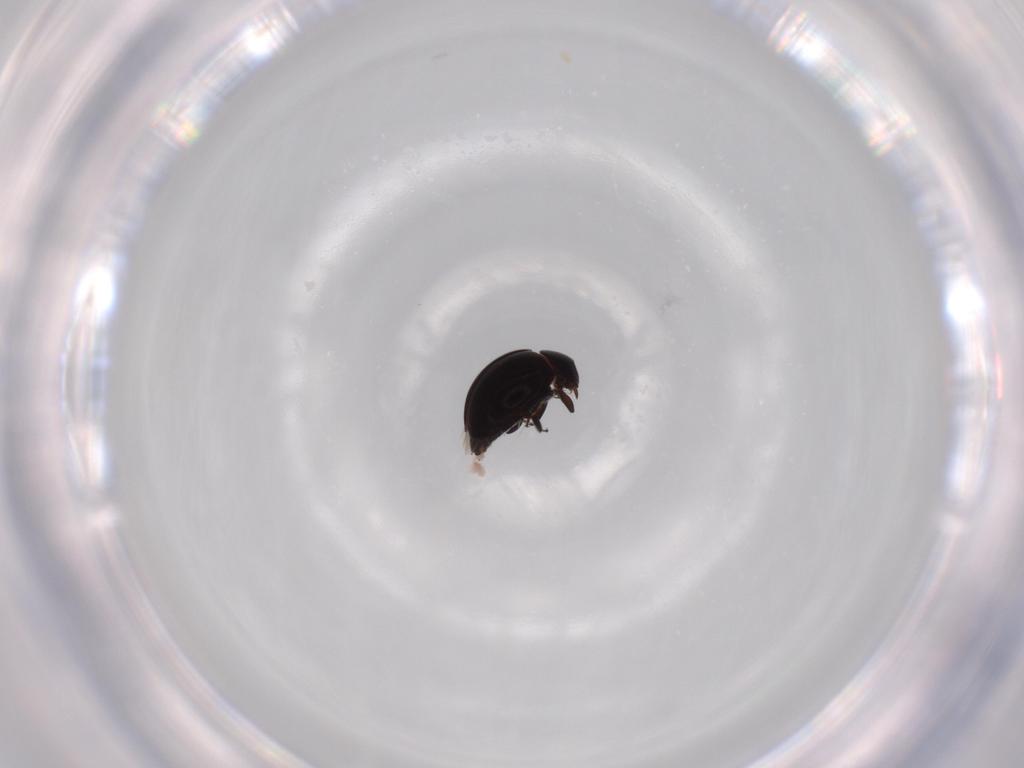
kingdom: Animalia
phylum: Arthropoda
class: Insecta
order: Coleoptera
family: Coccinellidae
